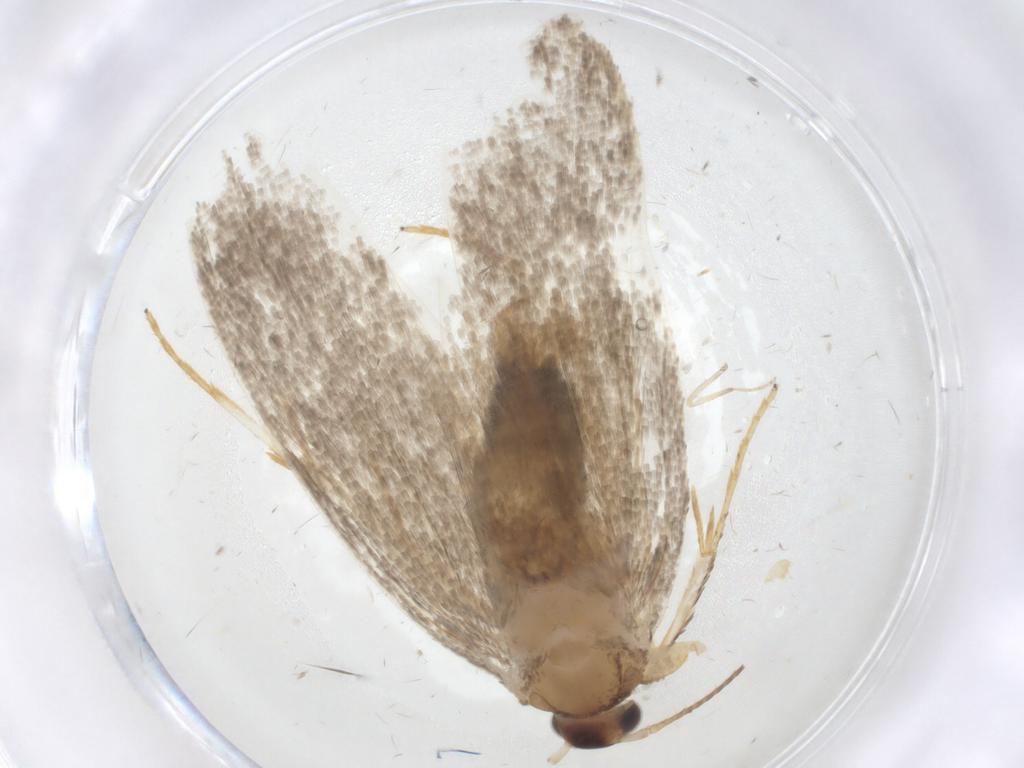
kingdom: Animalia
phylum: Arthropoda
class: Insecta
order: Lepidoptera
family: Oecophoridae
